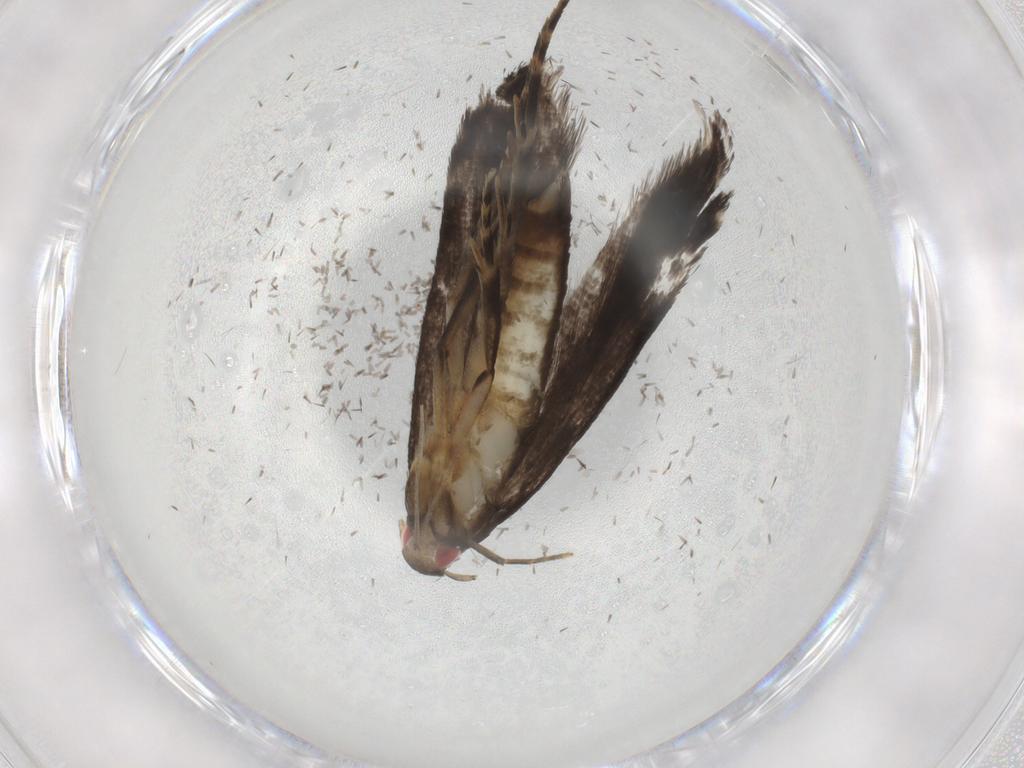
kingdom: Animalia
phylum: Arthropoda
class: Insecta
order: Lepidoptera
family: Gelechiidae
